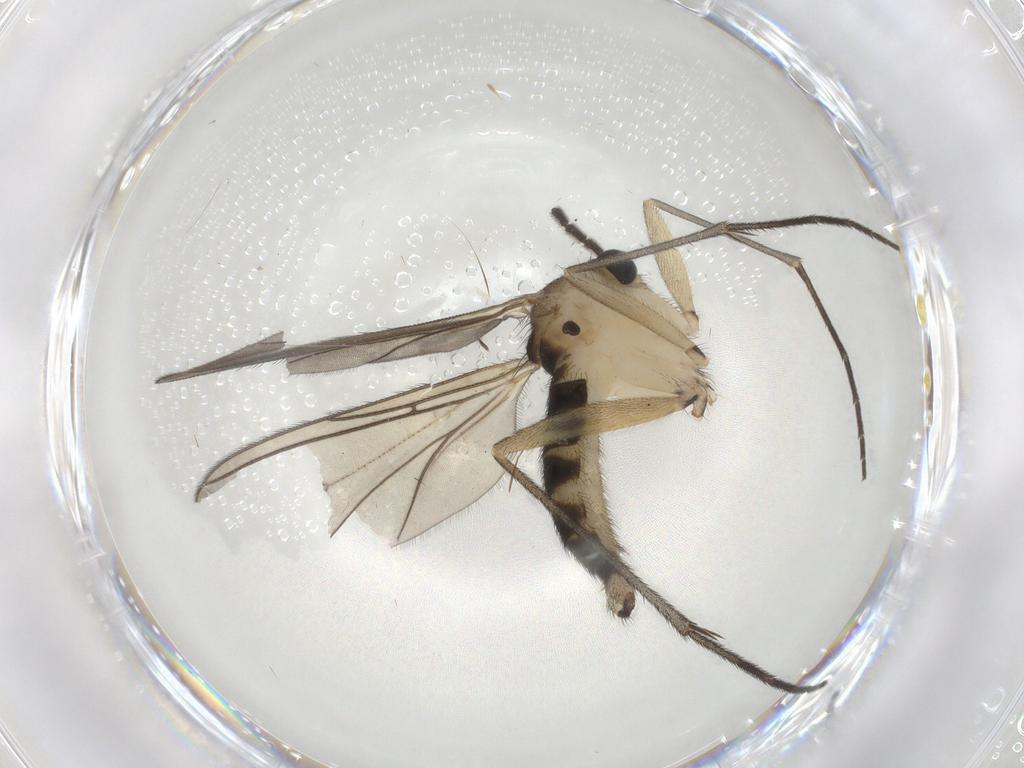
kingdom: Animalia
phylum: Arthropoda
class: Insecta
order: Diptera
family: Sciaridae
